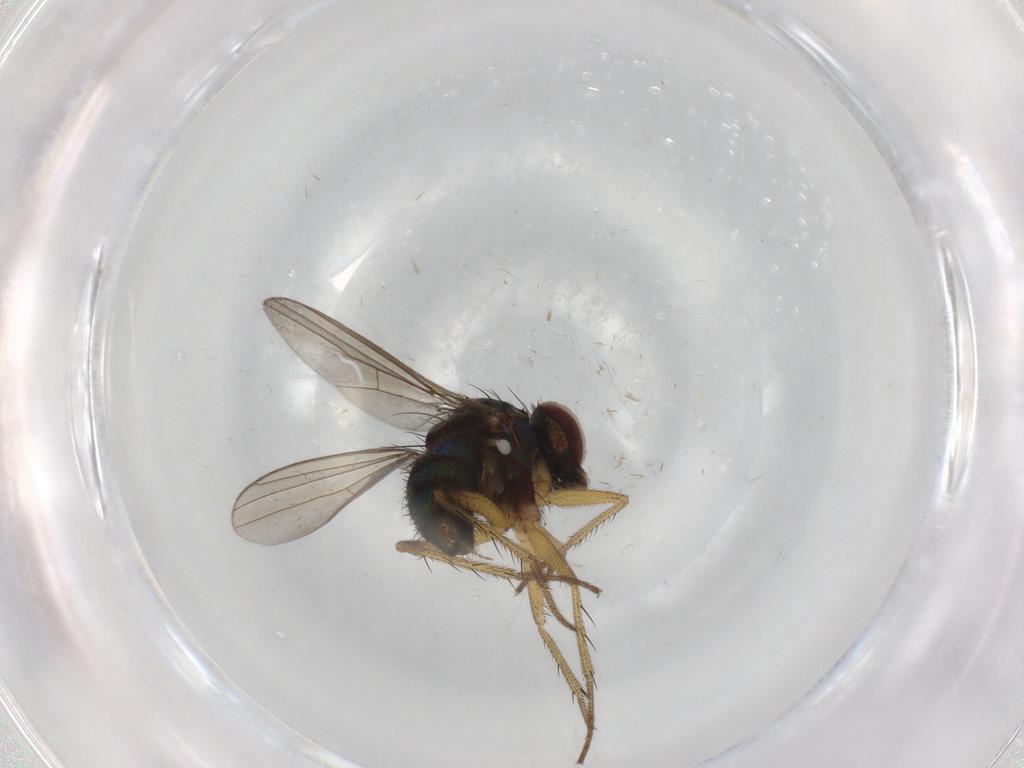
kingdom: Animalia
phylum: Arthropoda
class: Insecta
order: Diptera
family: Dolichopodidae
